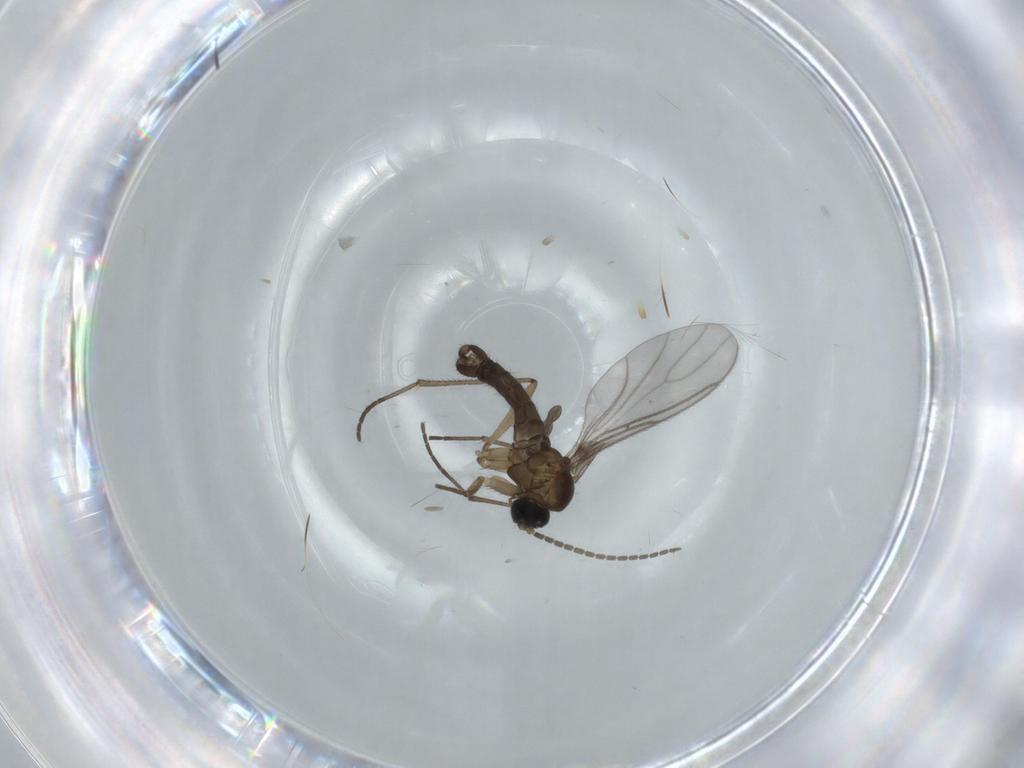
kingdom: Animalia
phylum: Arthropoda
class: Insecta
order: Diptera
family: Sciaridae
